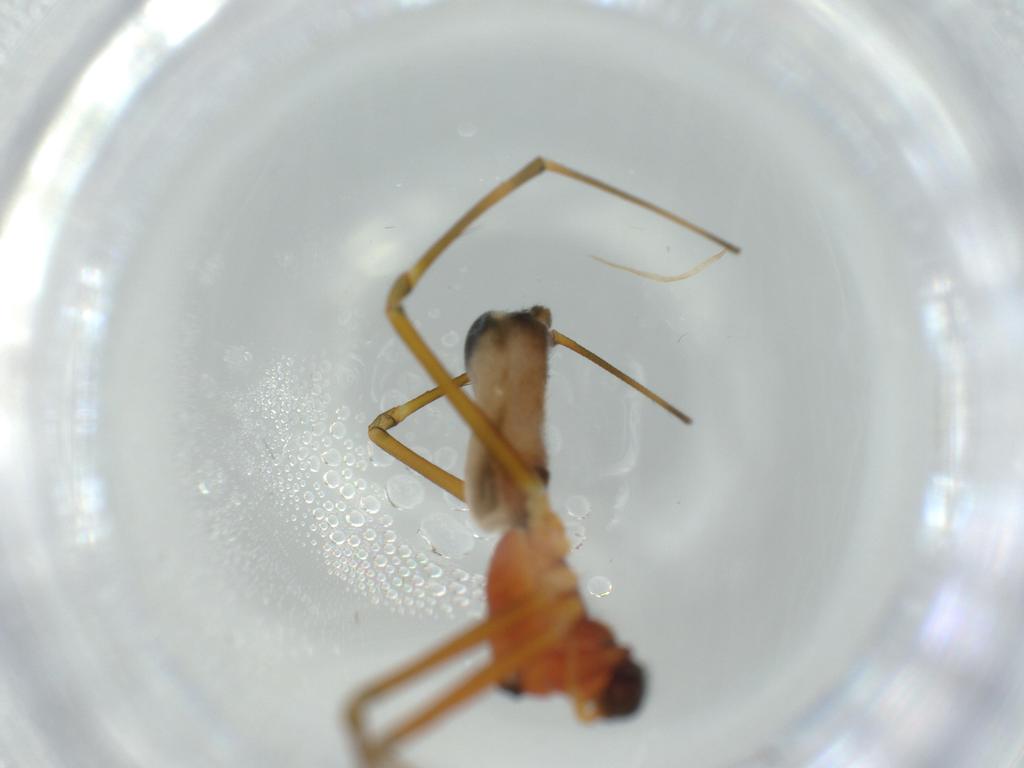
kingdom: Animalia
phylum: Arthropoda
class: Arachnida
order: Araneae
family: Linyphiidae
